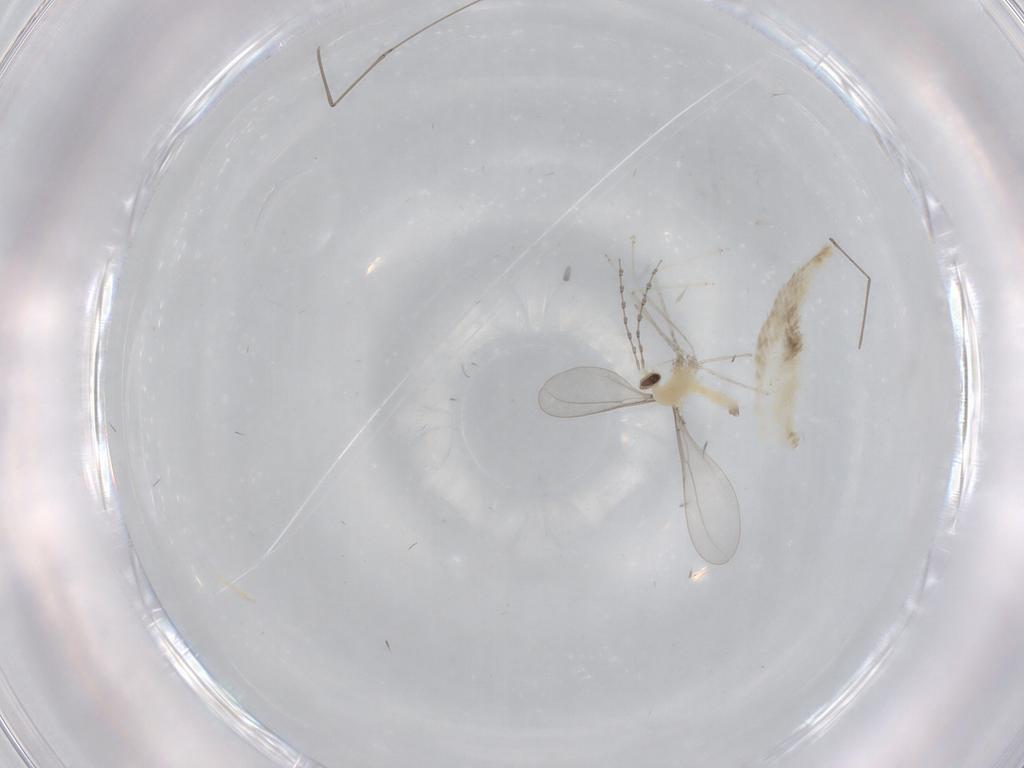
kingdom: Animalia
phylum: Arthropoda
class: Insecta
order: Diptera
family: Cecidomyiidae
